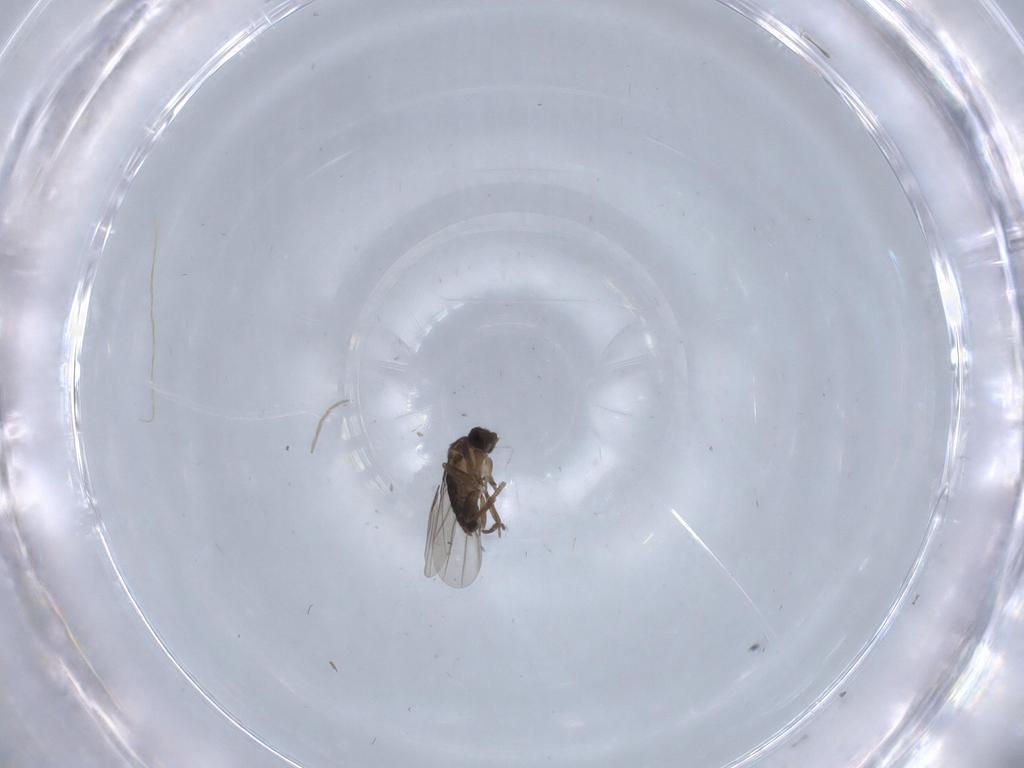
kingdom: Animalia
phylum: Arthropoda
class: Insecta
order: Diptera
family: Phoridae
